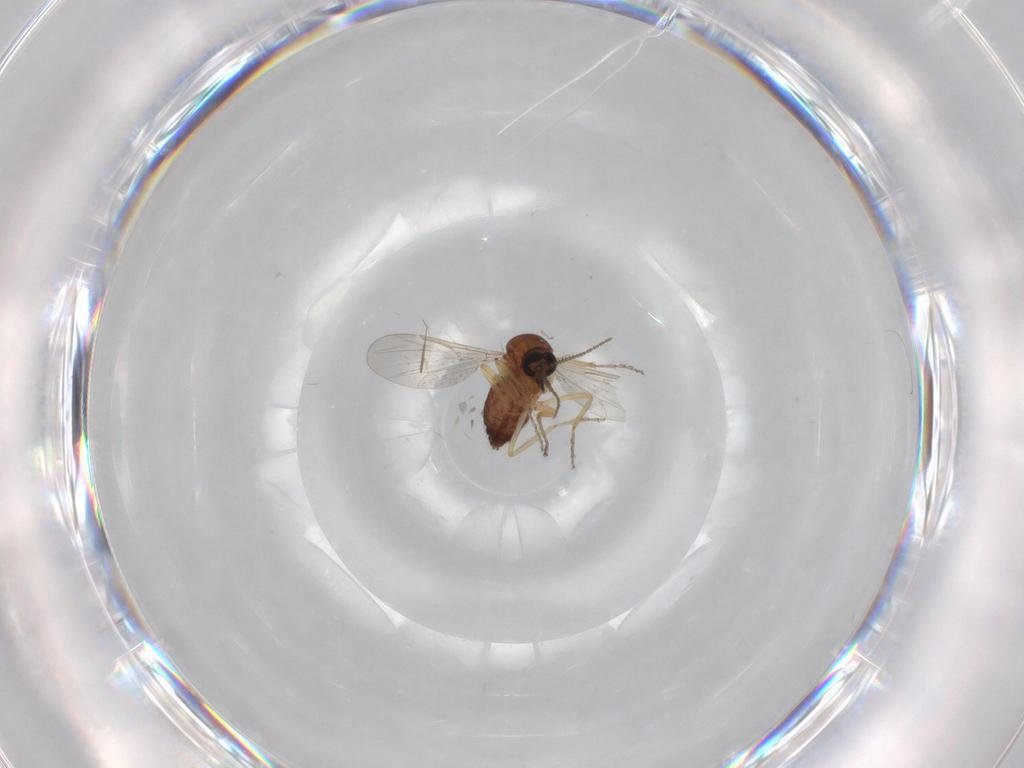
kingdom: Animalia
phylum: Arthropoda
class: Insecta
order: Diptera
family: Ceratopogonidae
